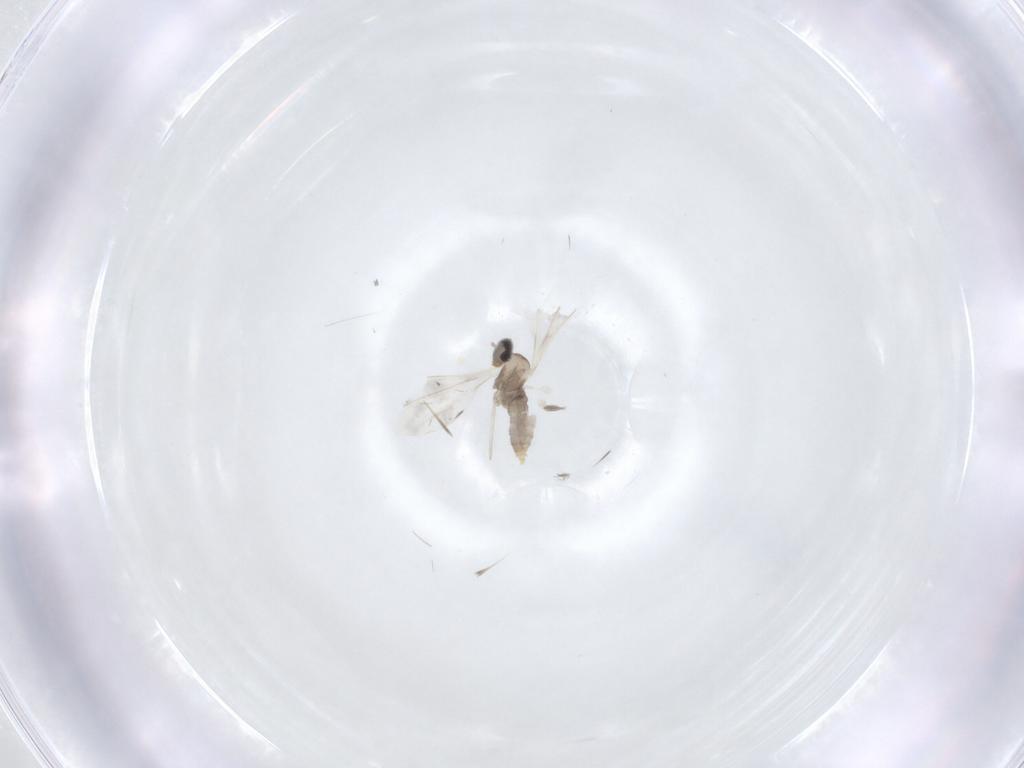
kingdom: Animalia
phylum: Arthropoda
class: Insecta
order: Diptera
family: Cecidomyiidae
